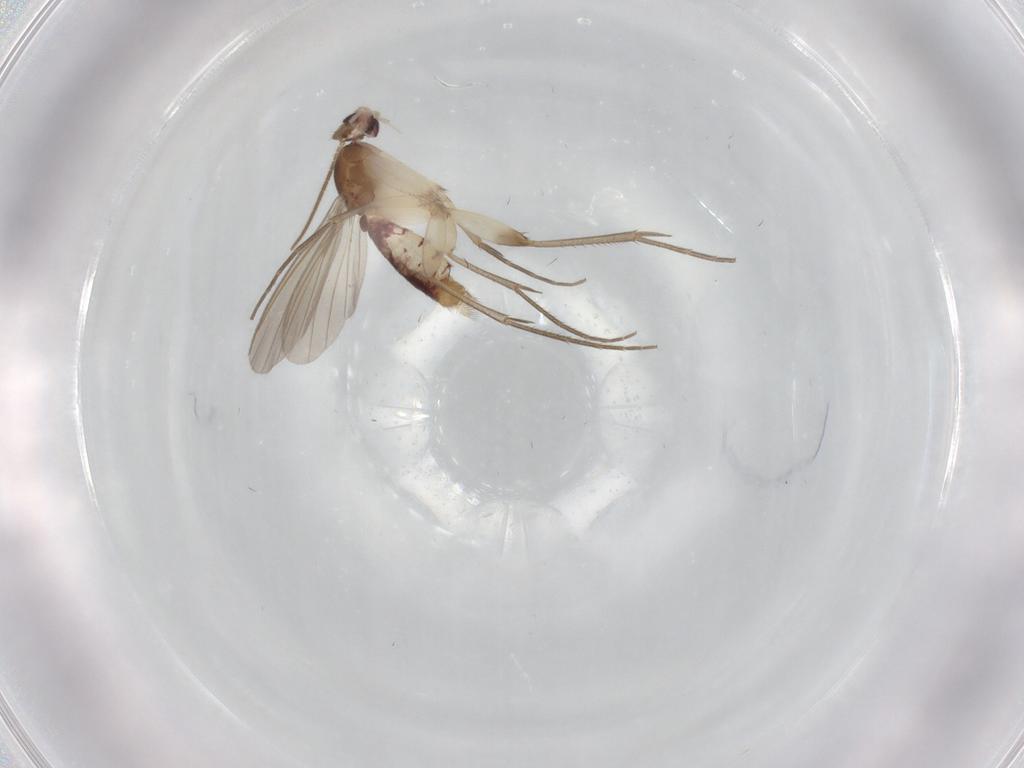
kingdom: Animalia
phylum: Arthropoda
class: Insecta
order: Diptera
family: Mycetophilidae
